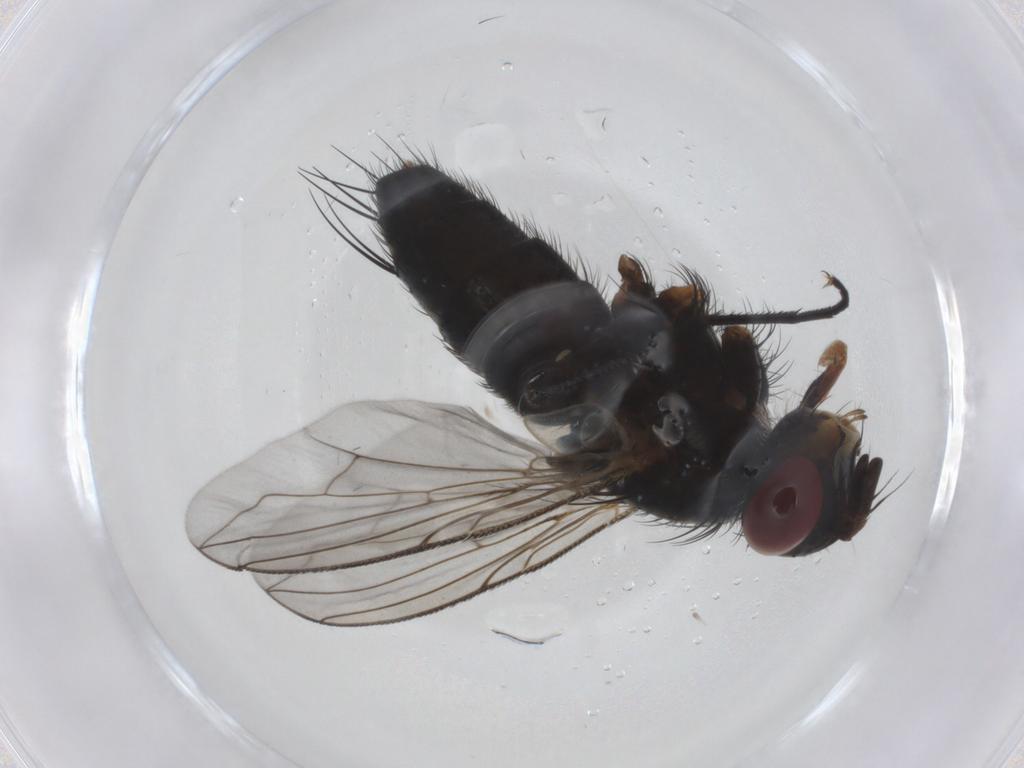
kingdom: Animalia
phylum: Arthropoda
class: Insecta
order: Diptera
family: Tachinidae
